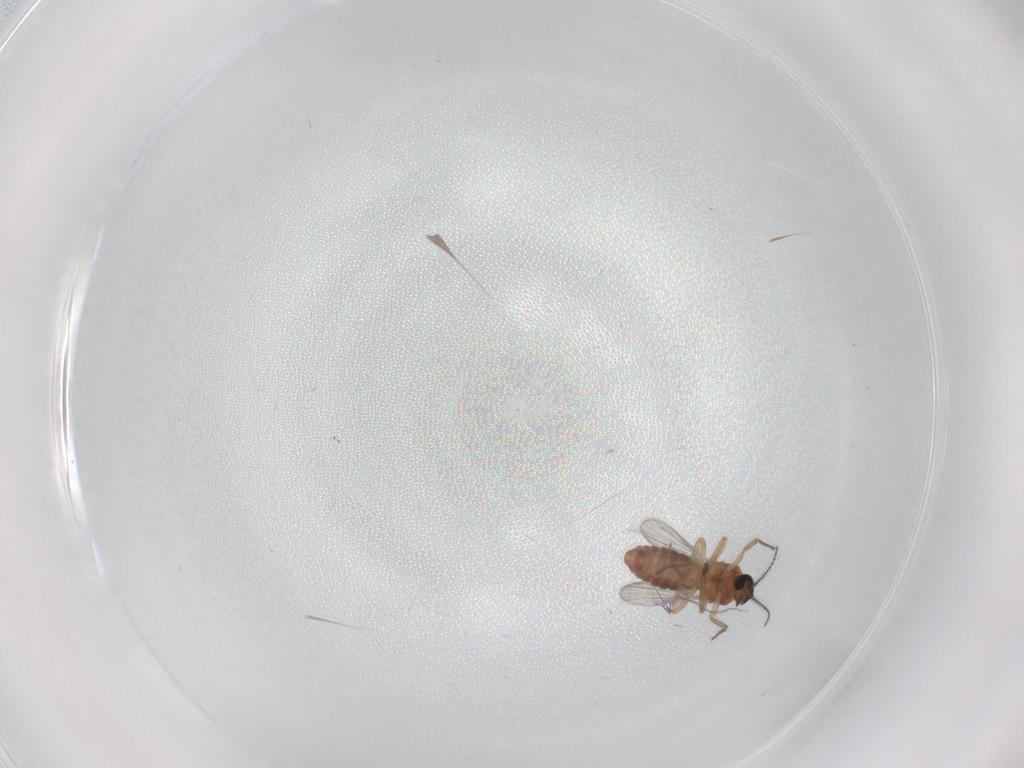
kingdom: Animalia
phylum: Arthropoda
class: Insecta
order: Diptera
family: Ceratopogonidae
